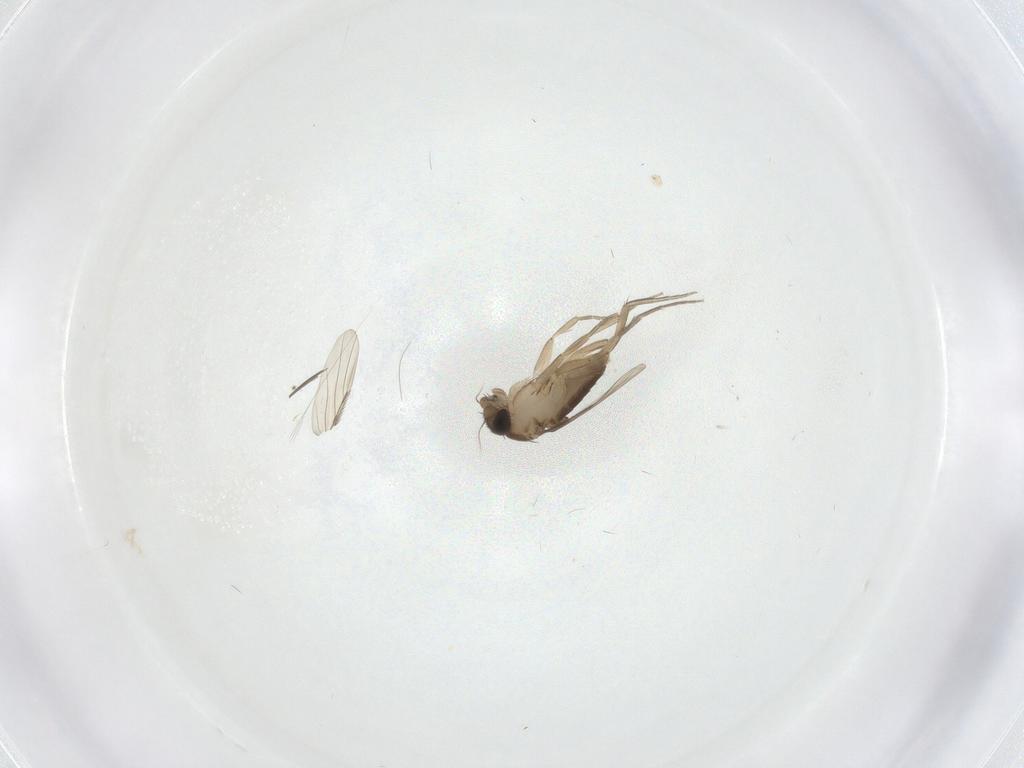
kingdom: Animalia
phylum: Arthropoda
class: Insecta
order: Diptera
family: Phoridae
